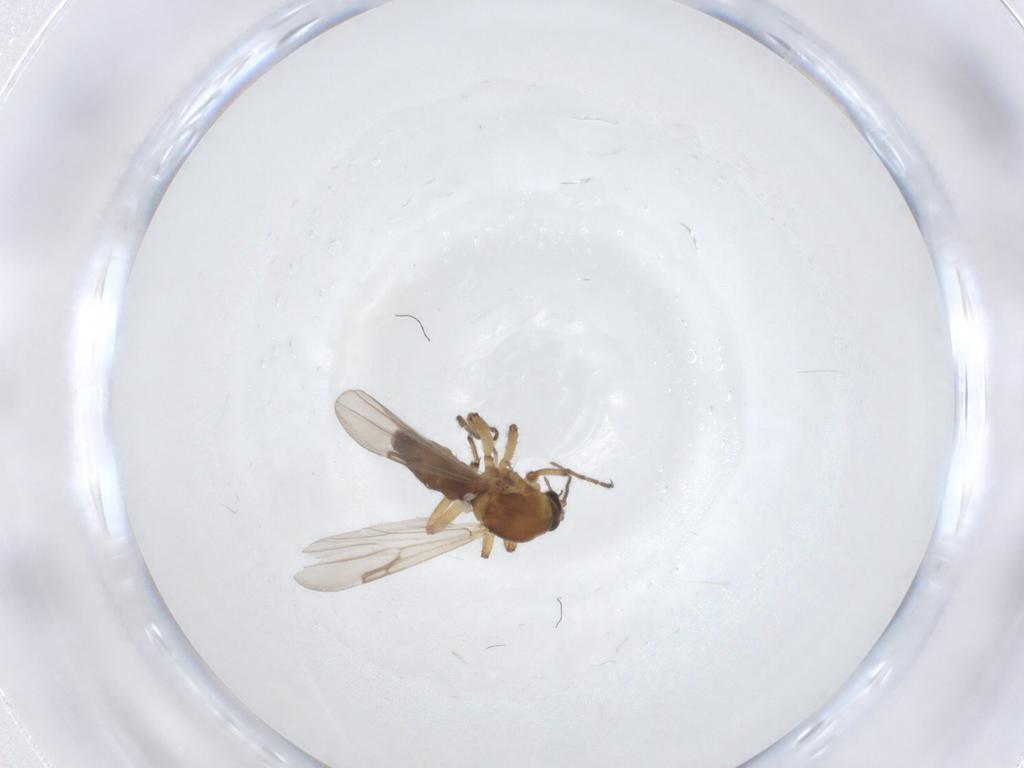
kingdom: Animalia
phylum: Arthropoda
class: Insecta
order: Diptera
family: Ceratopogonidae
